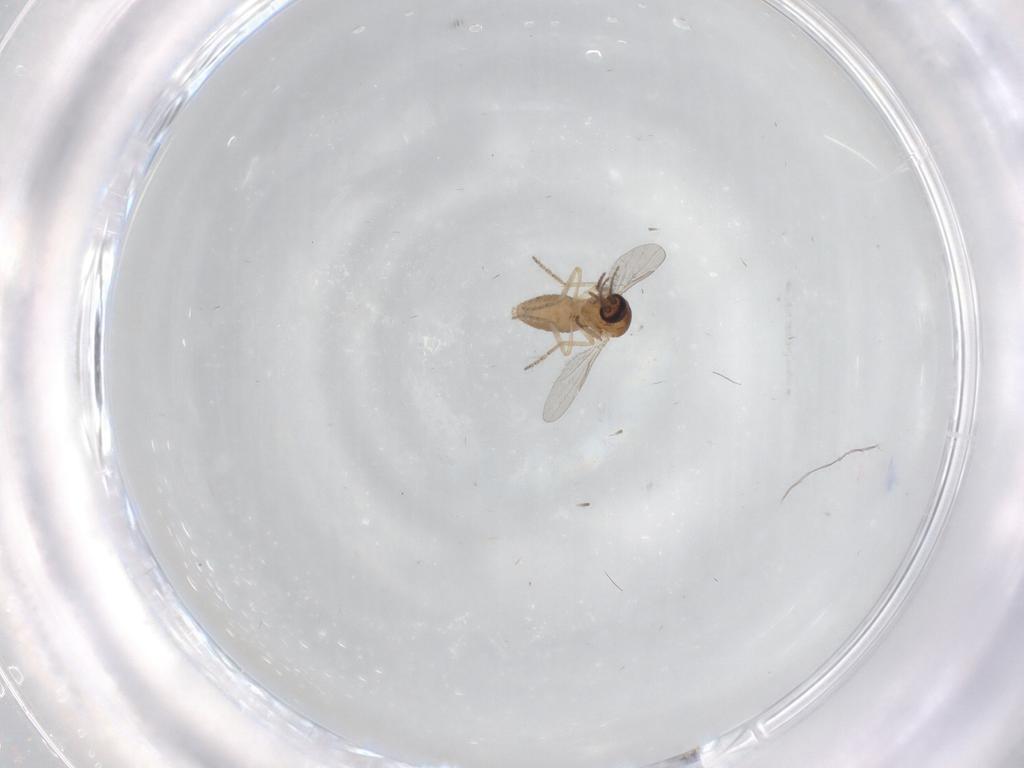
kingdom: Animalia
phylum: Arthropoda
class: Insecta
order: Diptera
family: Ceratopogonidae
